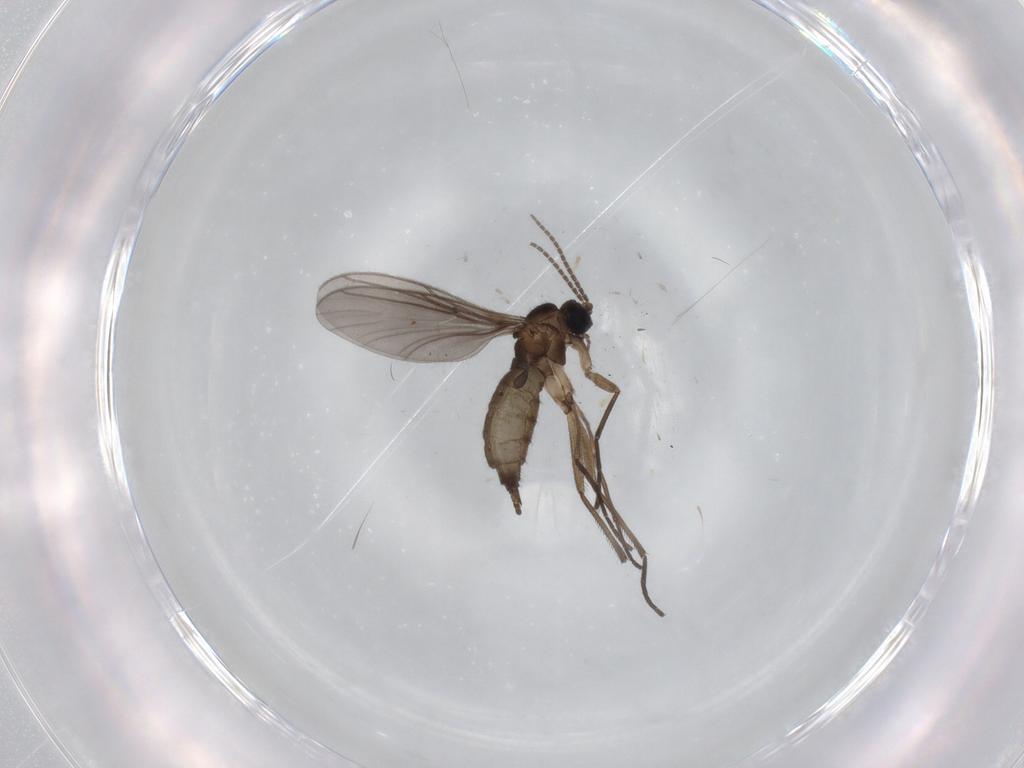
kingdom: Animalia
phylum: Arthropoda
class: Insecta
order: Diptera
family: Sciaridae
